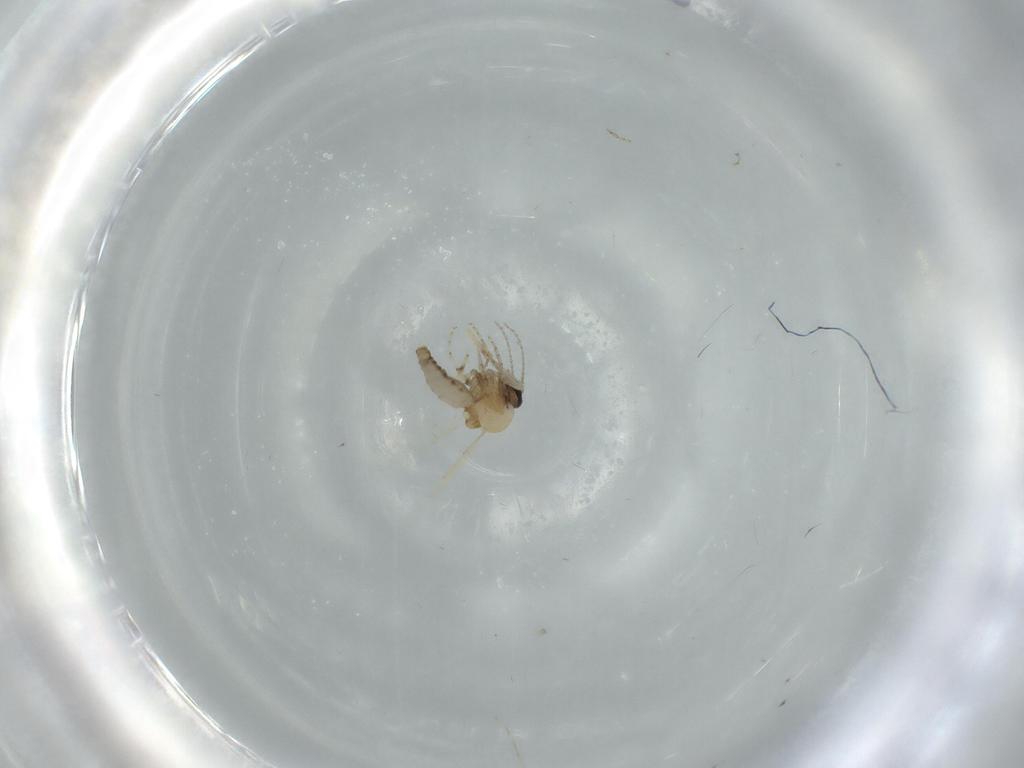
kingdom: Animalia
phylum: Arthropoda
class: Insecta
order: Diptera
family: Ceratopogonidae
